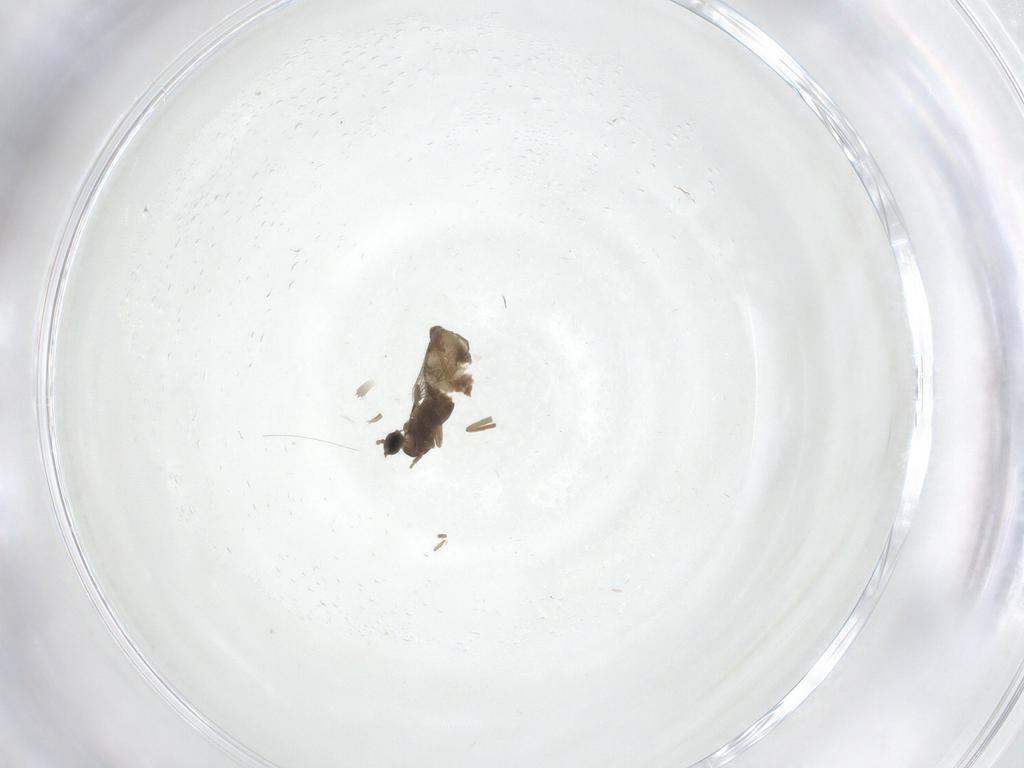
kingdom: Animalia
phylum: Arthropoda
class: Insecta
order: Diptera
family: Cecidomyiidae
